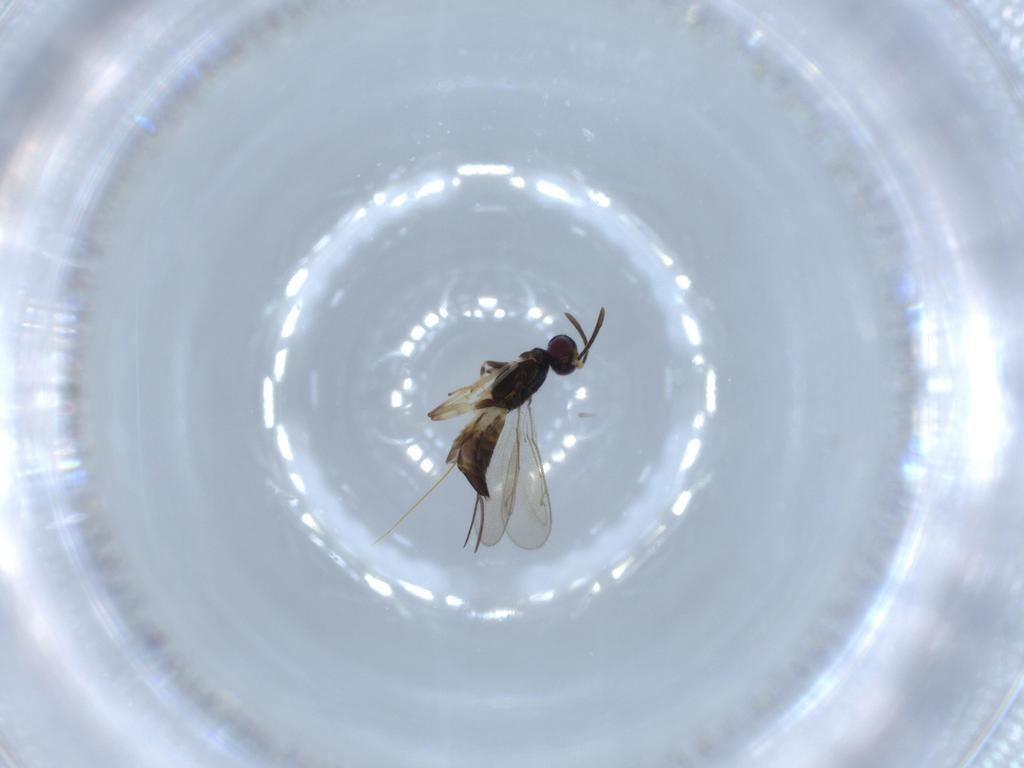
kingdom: Animalia
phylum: Arthropoda
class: Insecta
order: Hymenoptera
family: Eupelmidae
